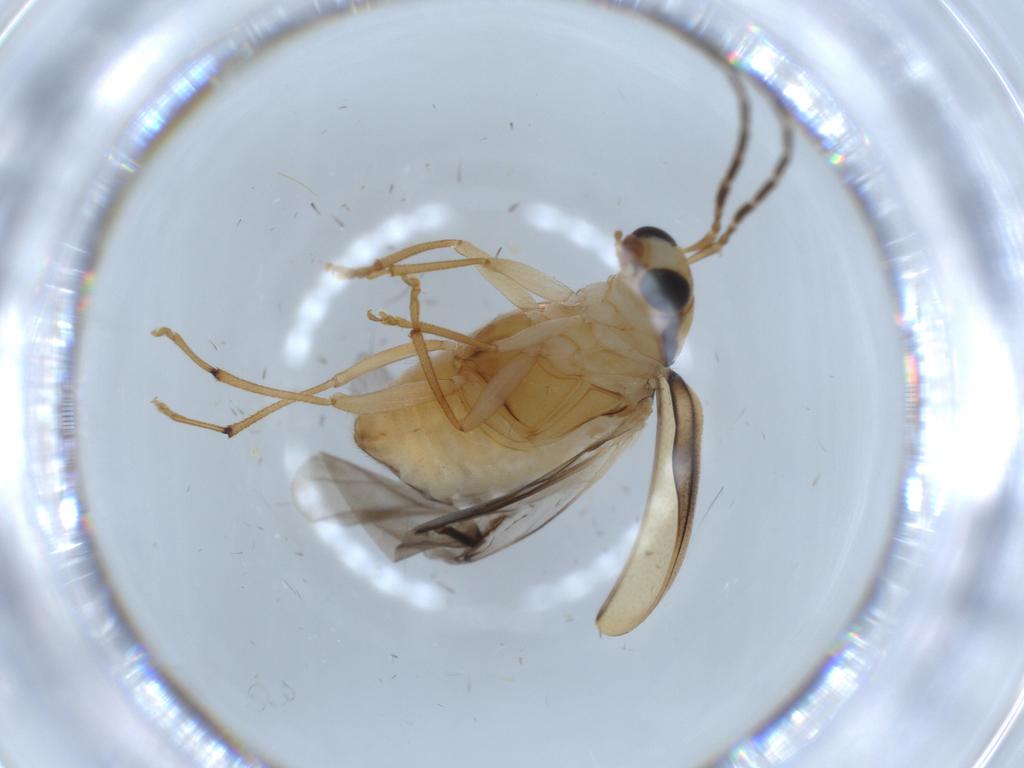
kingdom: Animalia
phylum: Arthropoda
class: Insecta
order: Coleoptera
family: Chrysomelidae
